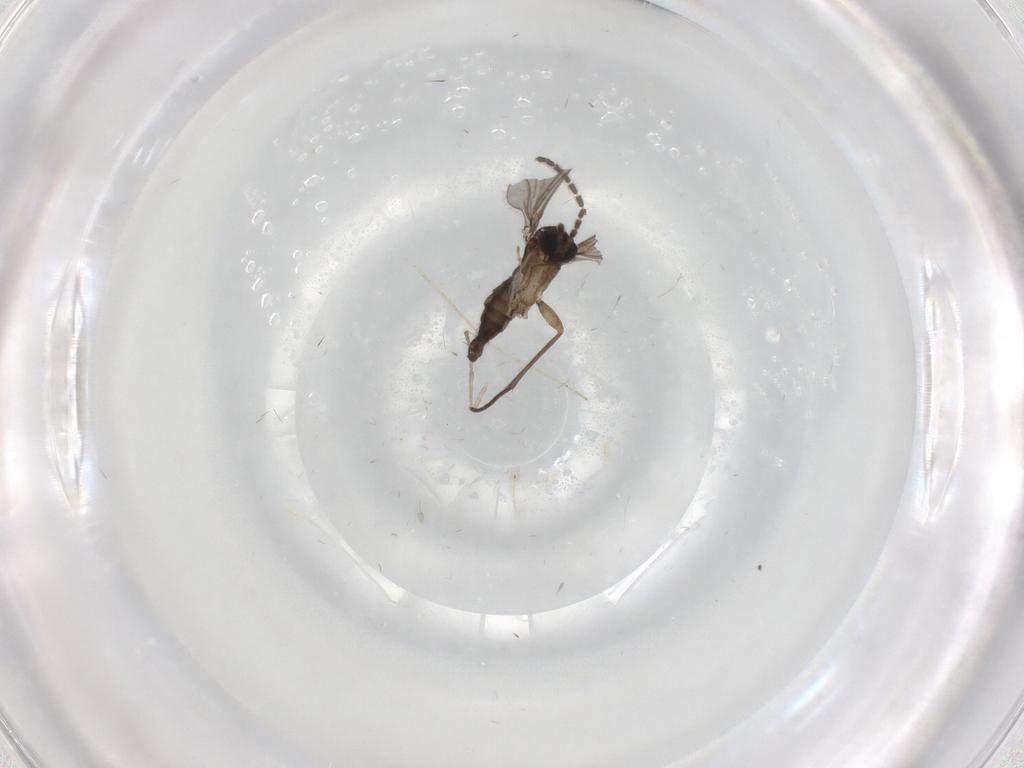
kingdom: Animalia
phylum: Arthropoda
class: Insecta
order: Diptera
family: Sciaridae
